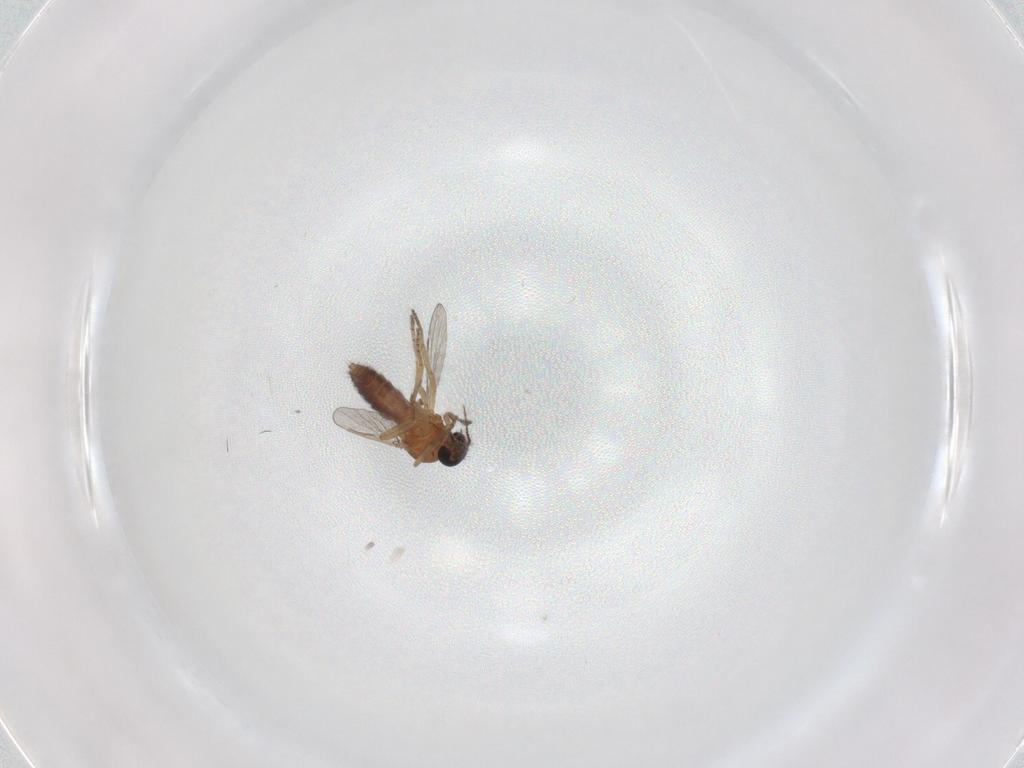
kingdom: Animalia
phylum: Arthropoda
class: Insecta
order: Diptera
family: Ceratopogonidae
